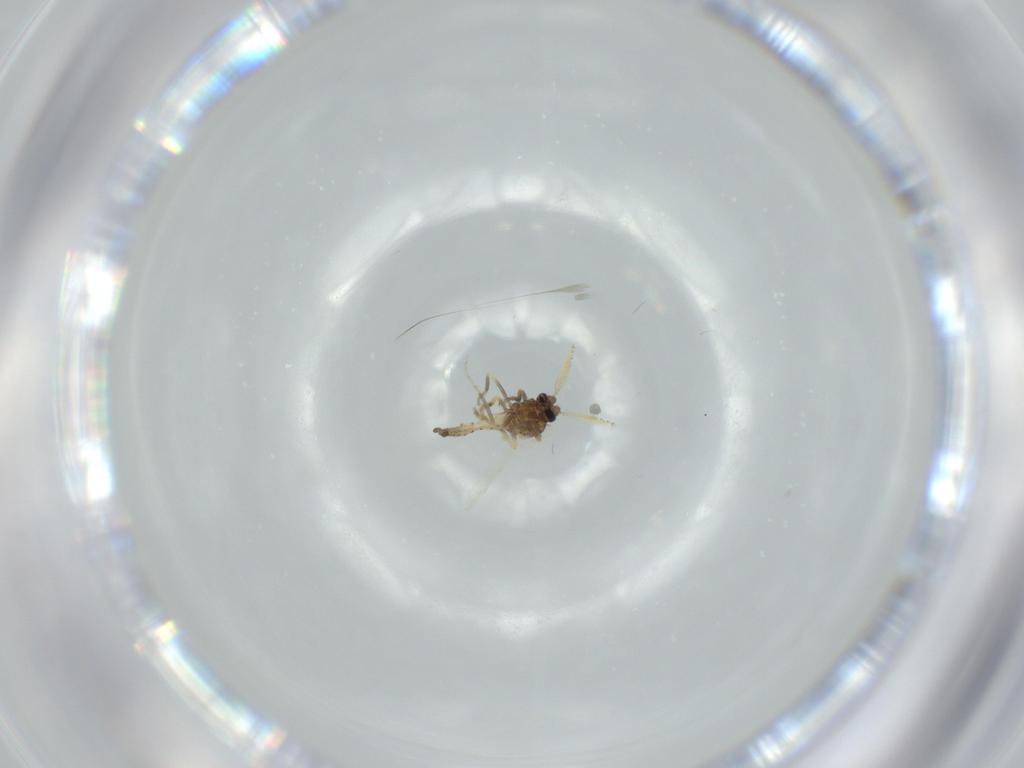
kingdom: Animalia
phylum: Arthropoda
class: Insecta
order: Diptera
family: Ceratopogonidae
